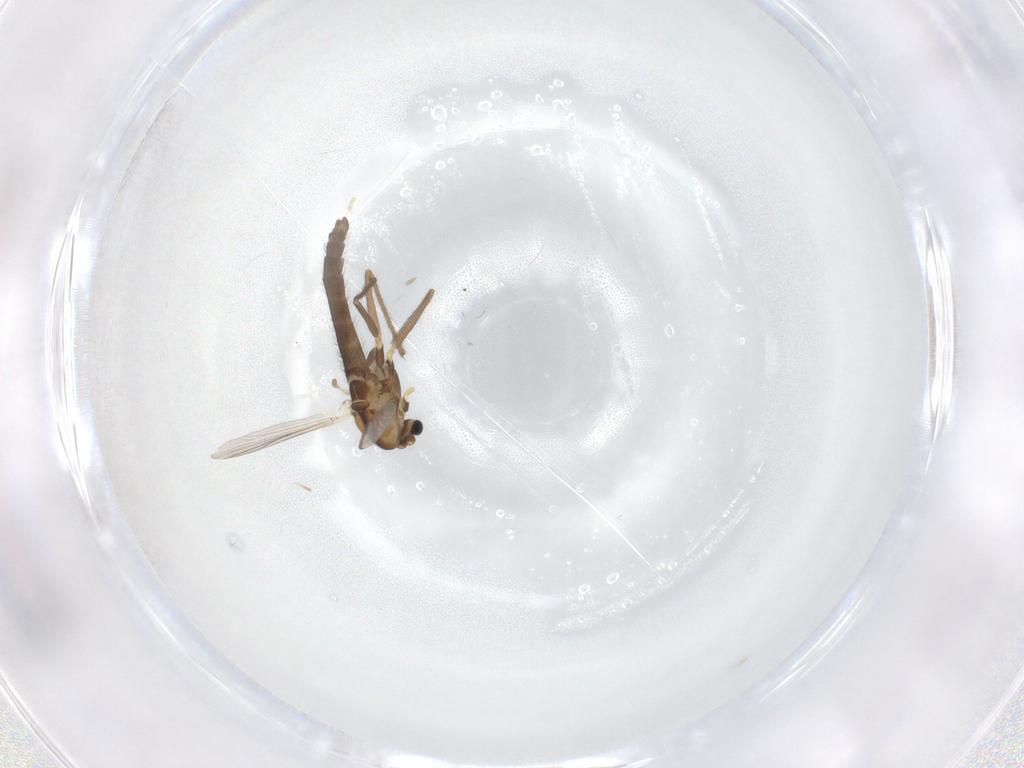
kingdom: Animalia
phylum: Arthropoda
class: Insecta
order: Diptera
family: Chironomidae
